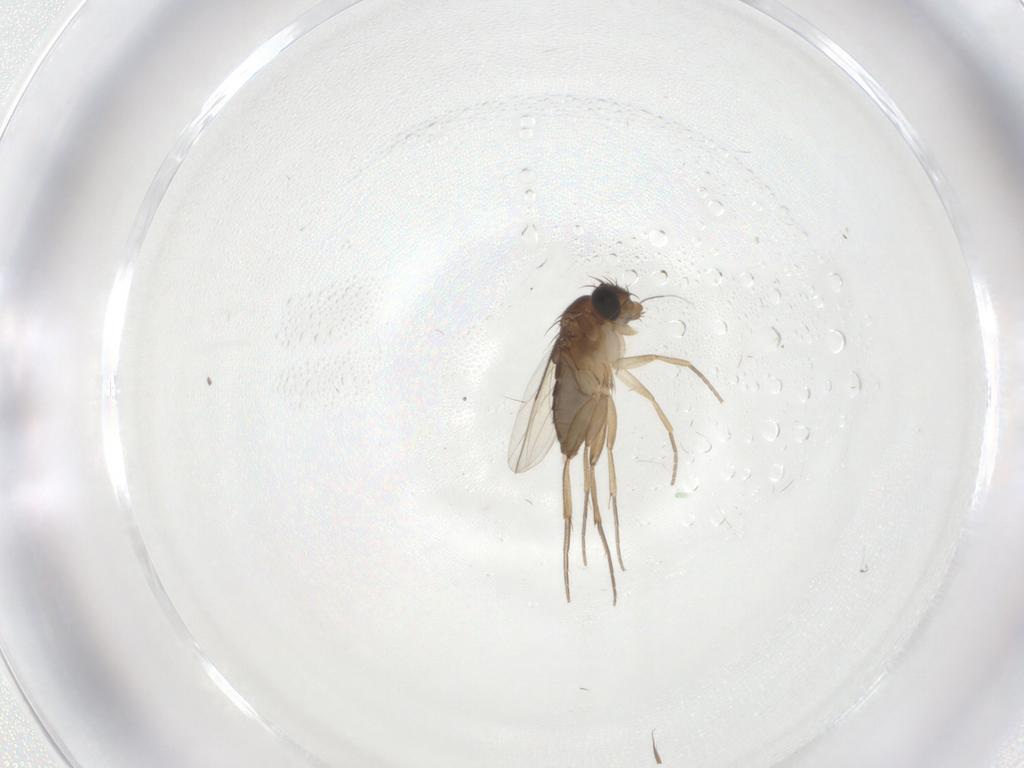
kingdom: Animalia
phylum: Arthropoda
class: Insecta
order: Diptera
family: Phoridae
